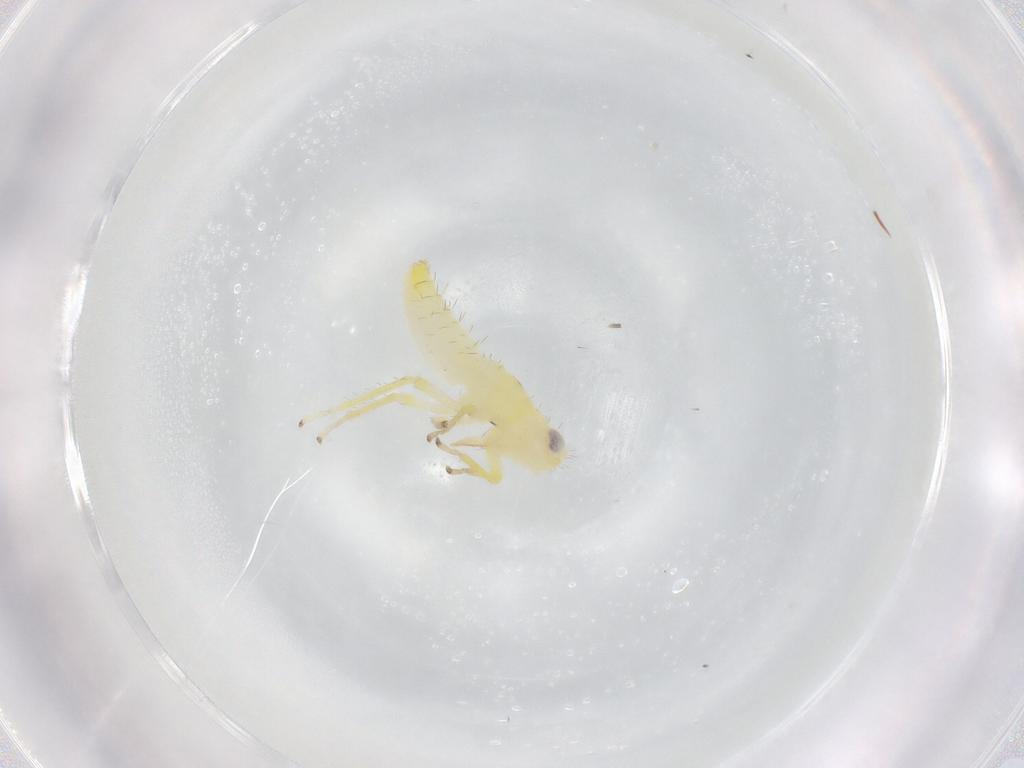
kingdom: Animalia
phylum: Arthropoda
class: Insecta
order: Hemiptera
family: Cicadellidae
